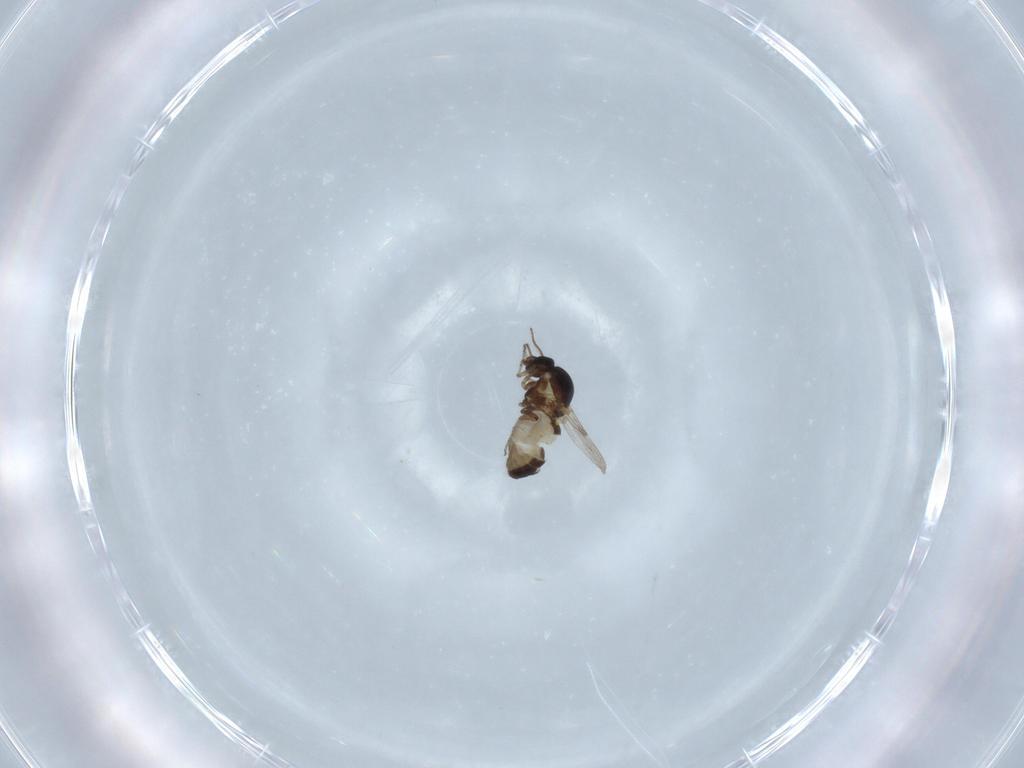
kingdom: Animalia
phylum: Arthropoda
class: Insecta
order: Diptera
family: Ceratopogonidae
